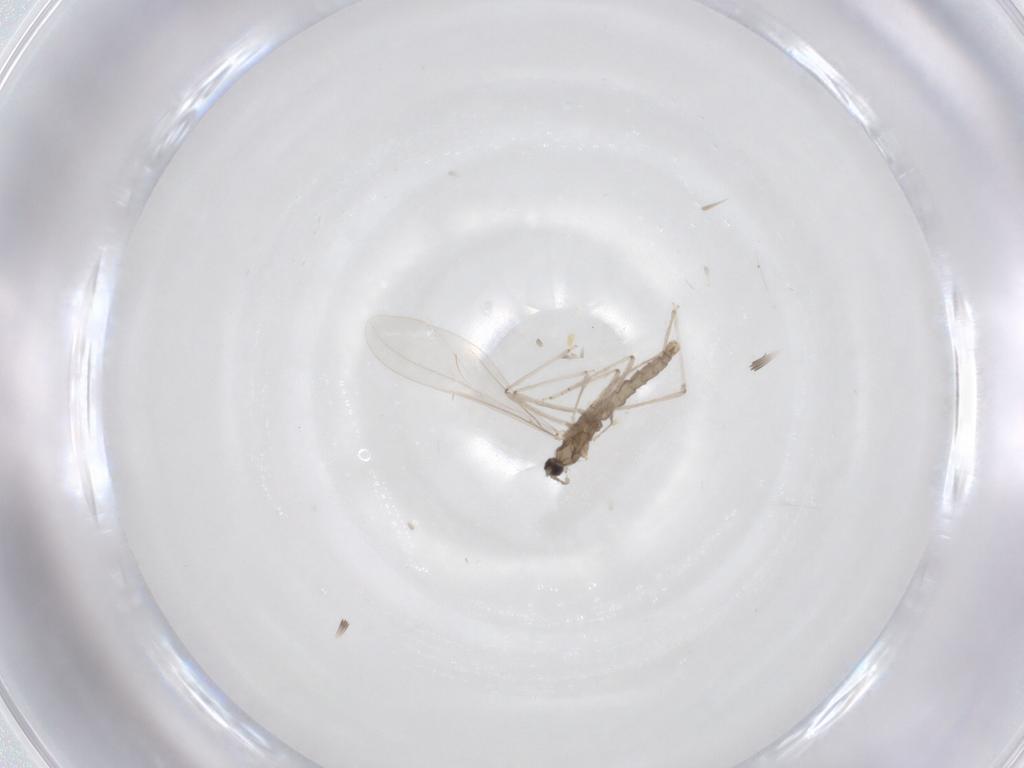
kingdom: Animalia
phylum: Arthropoda
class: Insecta
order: Diptera
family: Cecidomyiidae
